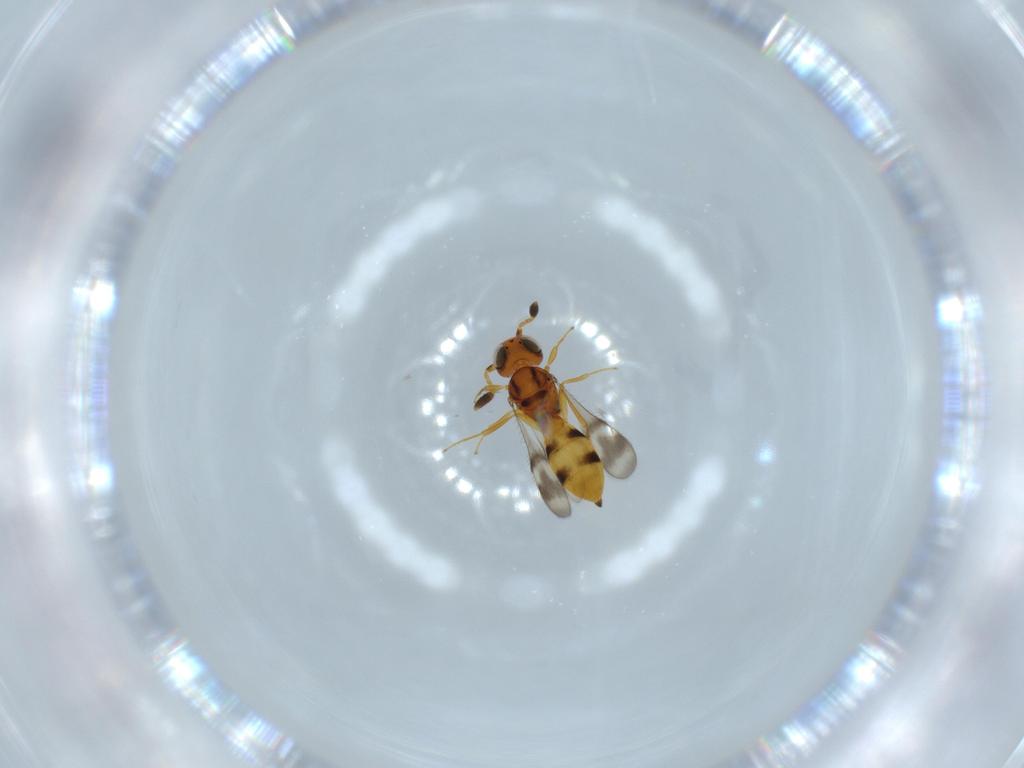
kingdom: Animalia
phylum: Arthropoda
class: Insecta
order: Hymenoptera
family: Scelionidae
